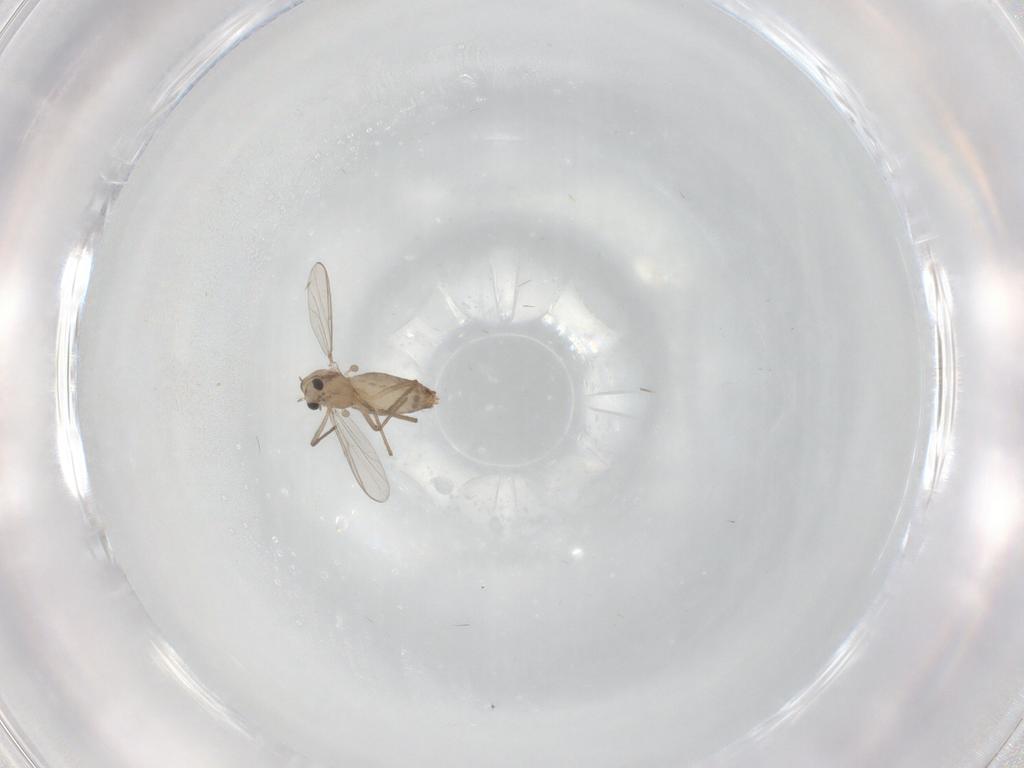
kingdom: Animalia
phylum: Arthropoda
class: Insecta
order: Diptera
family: Chironomidae
